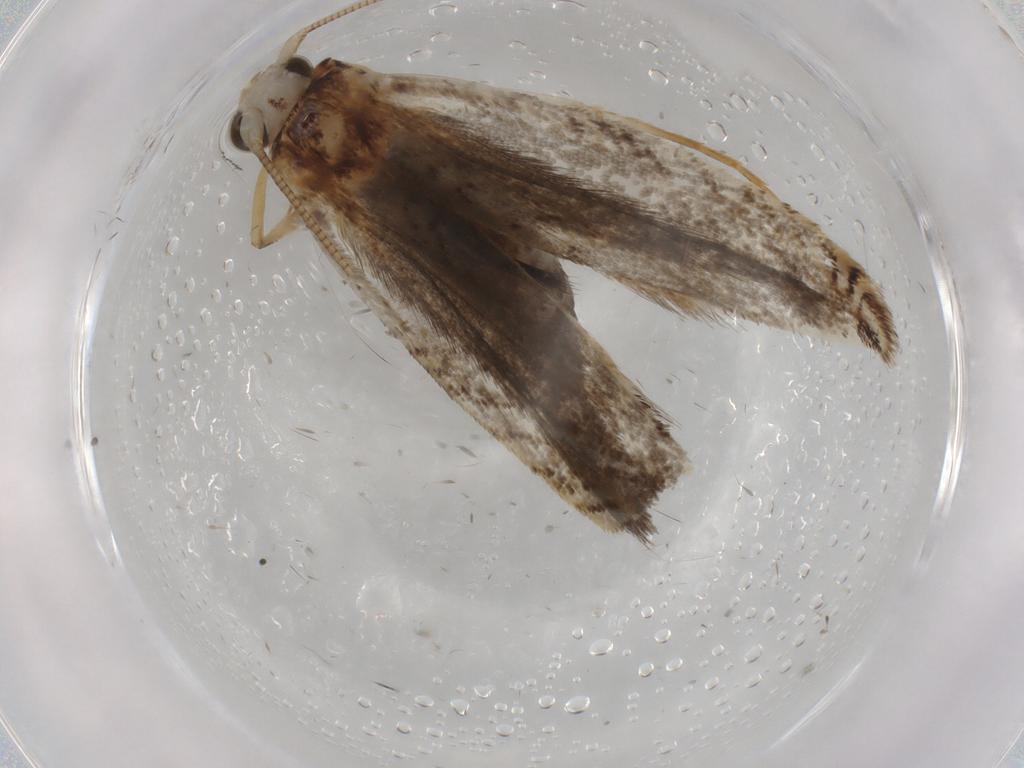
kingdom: Animalia
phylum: Arthropoda
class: Insecta
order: Lepidoptera
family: Nepticulidae
